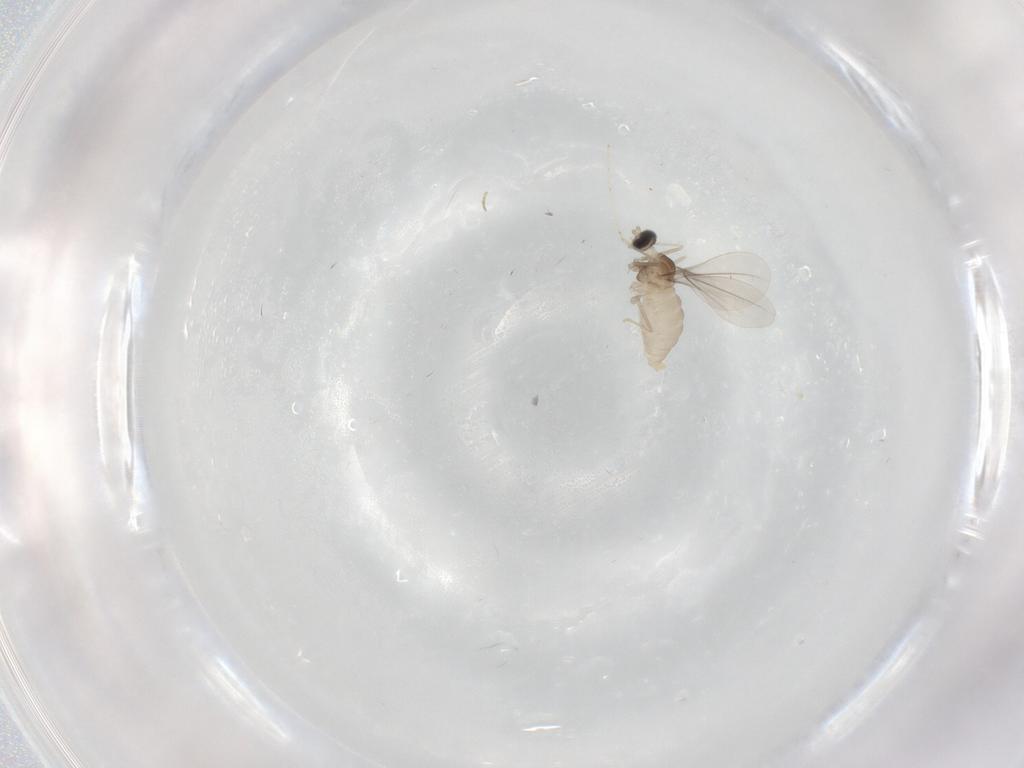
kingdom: Animalia
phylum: Arthropoda
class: Insecta
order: Diptera
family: Cecidomyiidae
